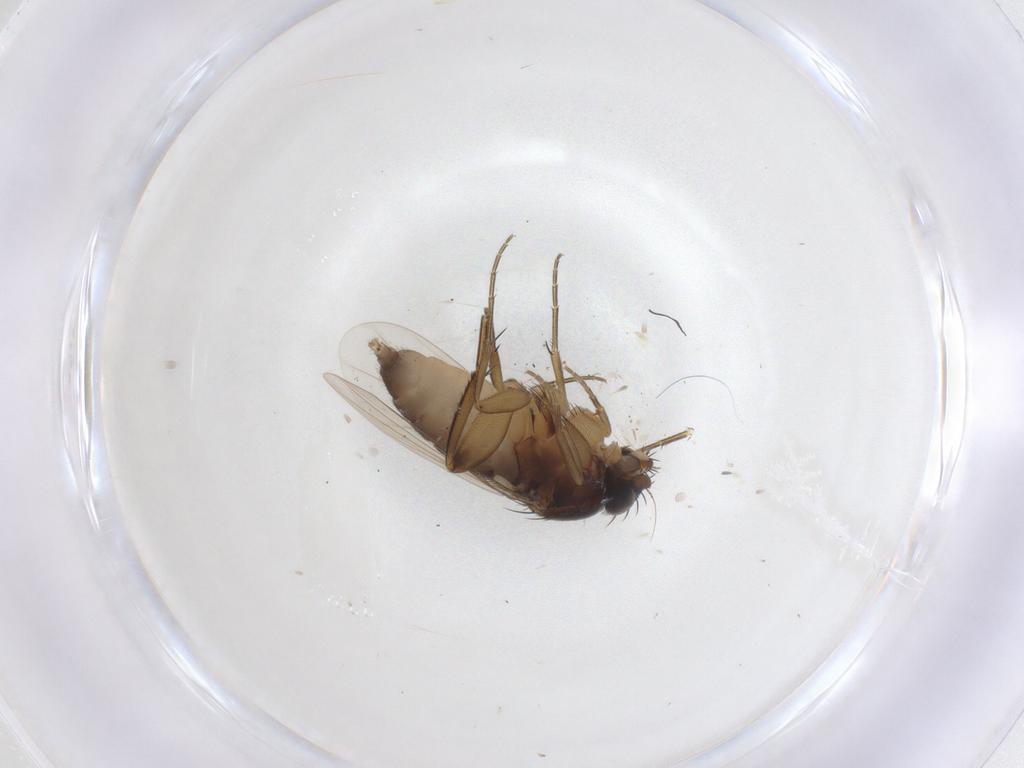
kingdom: Animalia
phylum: Arthropoda
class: Insecta
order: Diptera
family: Phoridae
